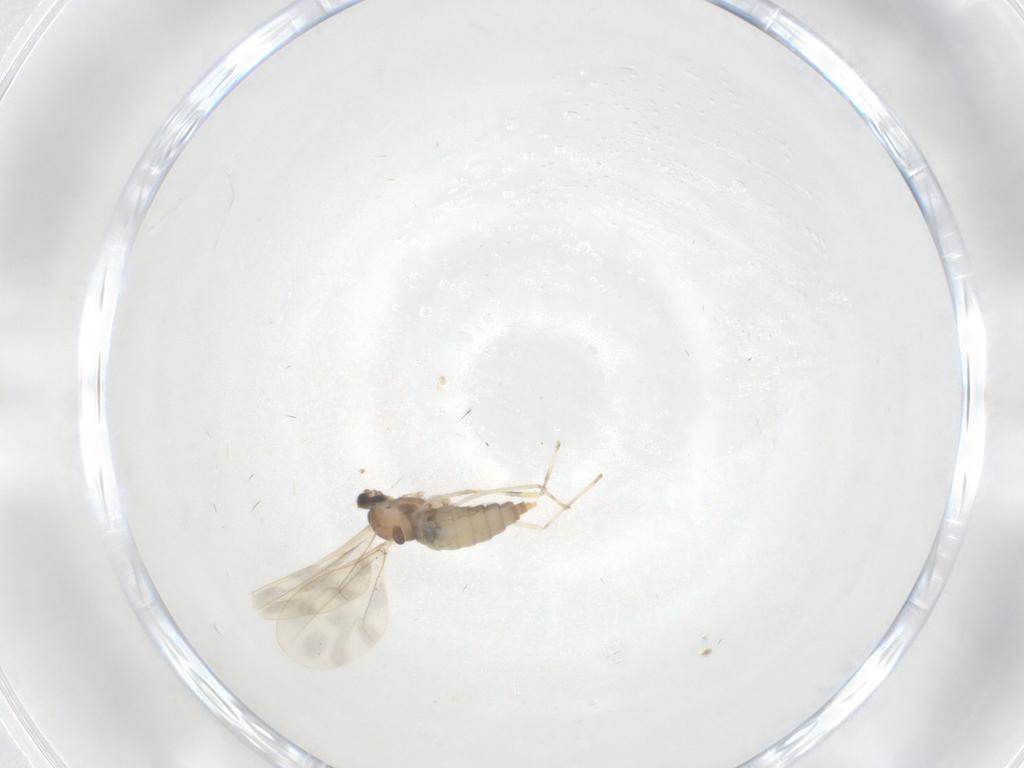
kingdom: Animalia
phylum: Arthropoda
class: Insecta
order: Diptera
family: Cecidomyiidae
